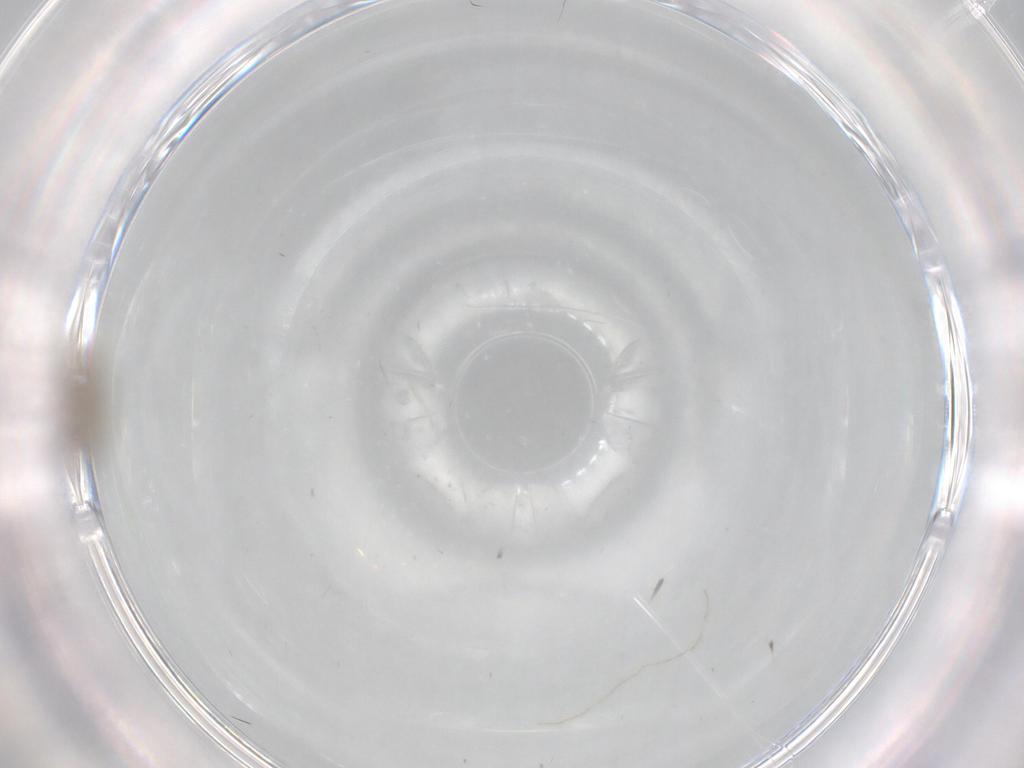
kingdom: Animalia
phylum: Arthropoda
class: Insecta
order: Diptera
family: Cecidomyiidae
